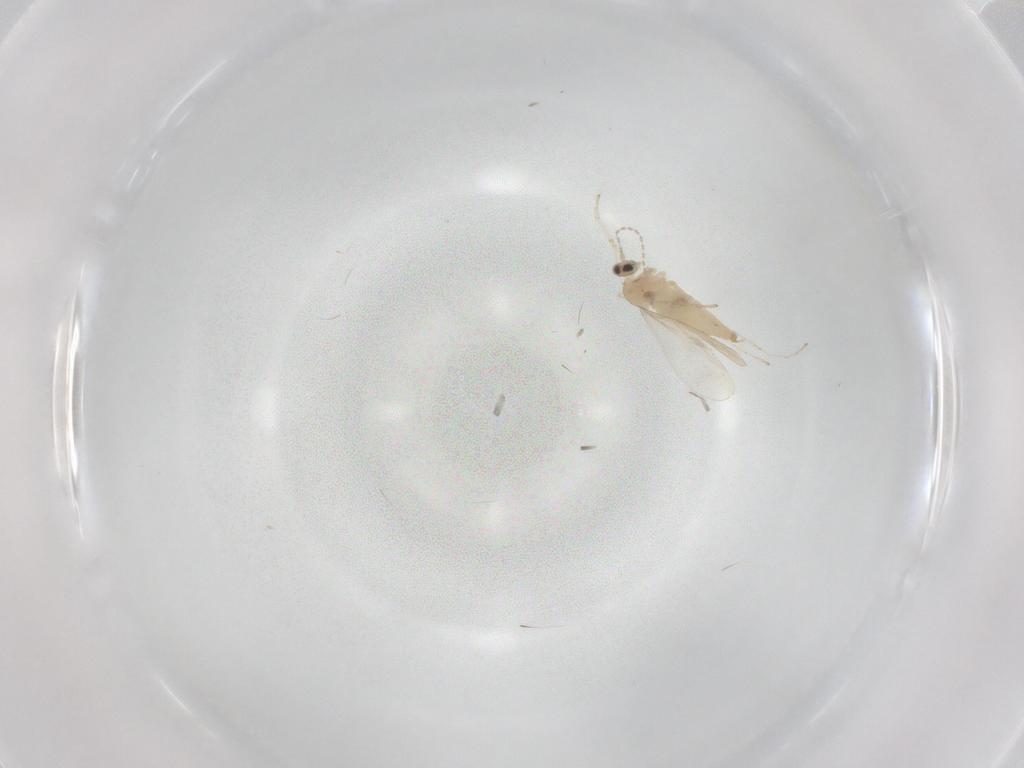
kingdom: Animalia
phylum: Arthropoda
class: Insecta
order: Diptera
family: Cecidomyiidae
